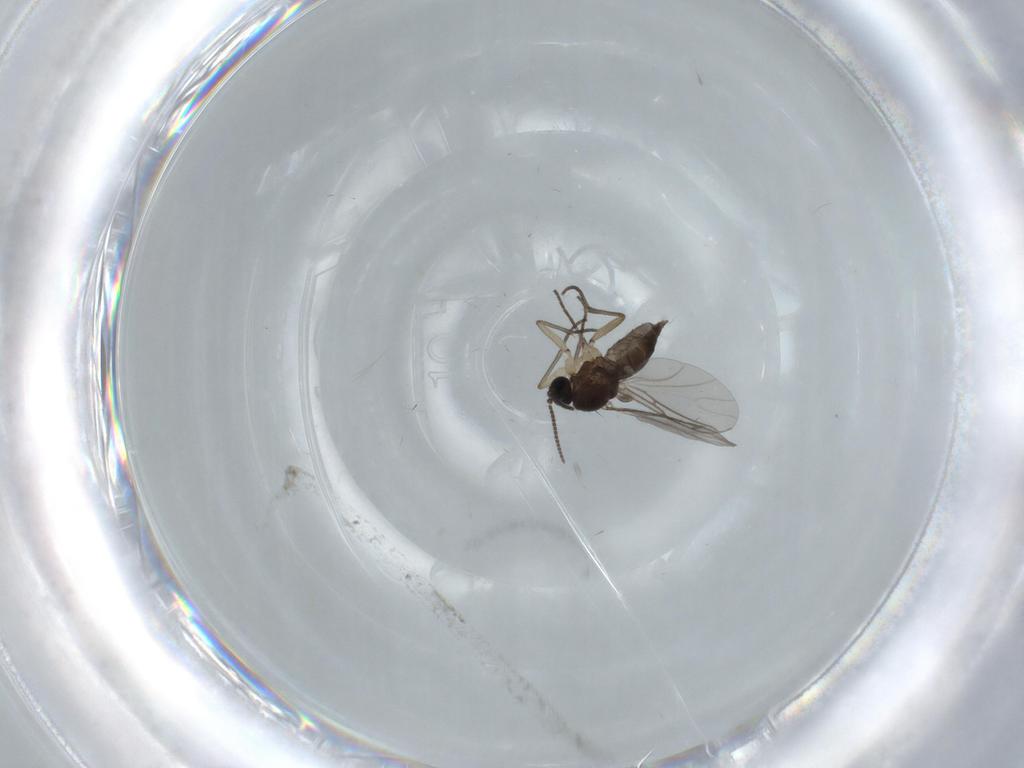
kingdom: Animalia
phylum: Arthropoda
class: Insecta
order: Diptera
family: Sciaridae
